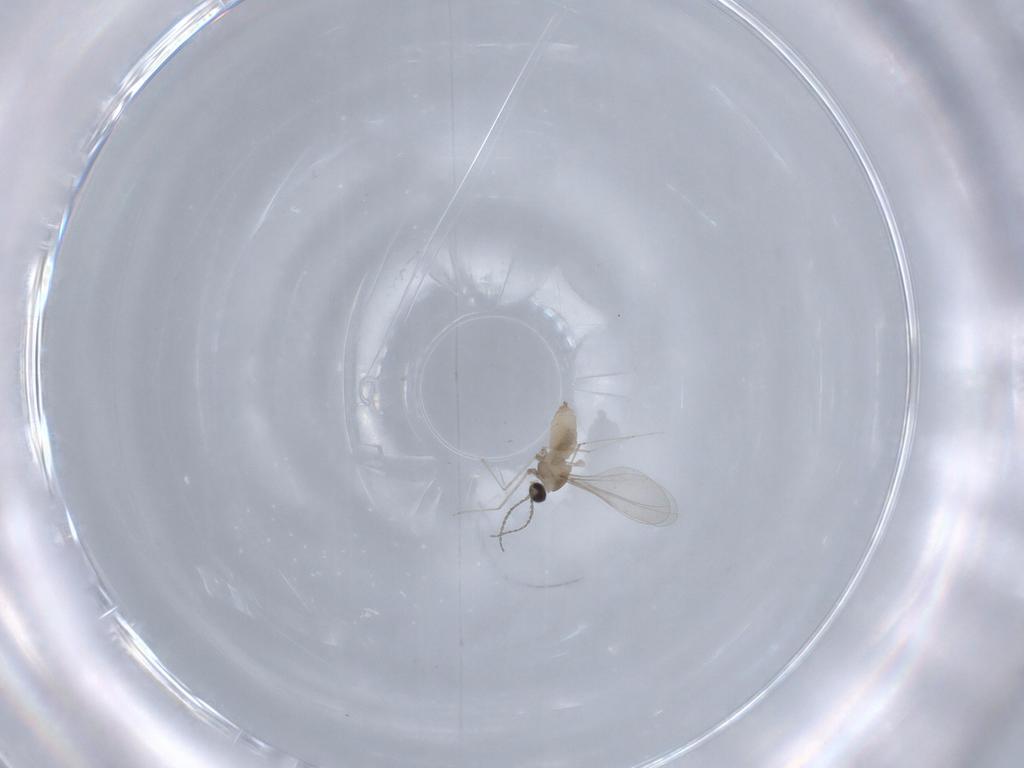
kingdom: Animalia
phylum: Arthropoda
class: Insecta
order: Diptera
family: Cecidomyiidae
